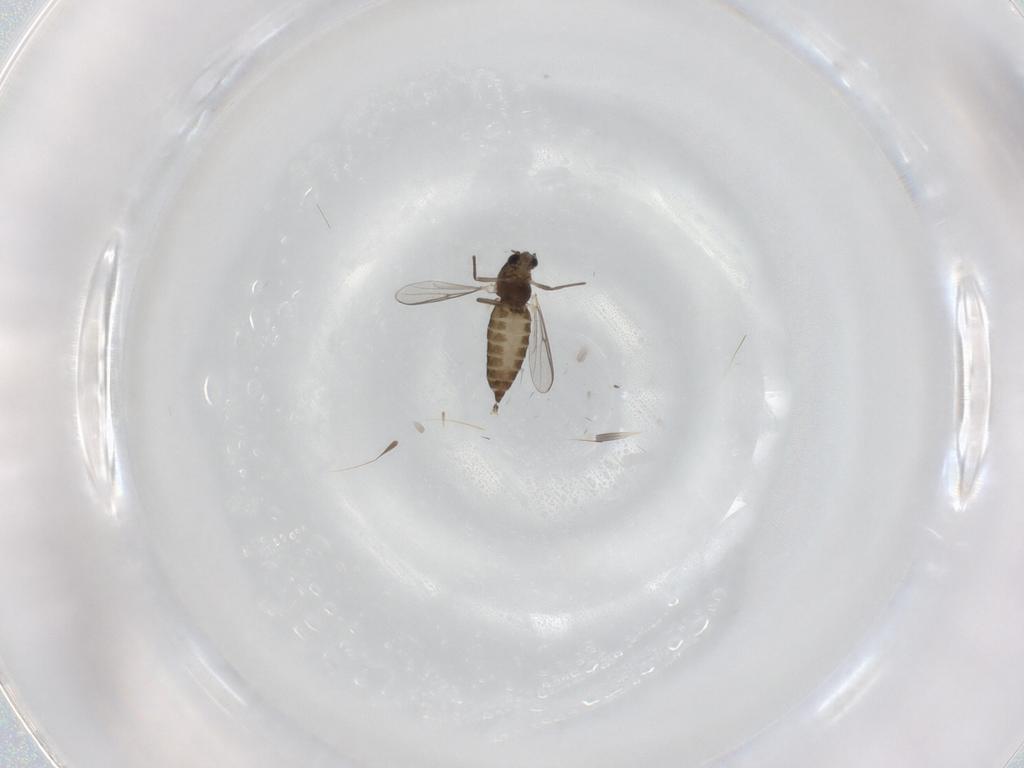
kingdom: Animalia
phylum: Arthropoda
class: Insecta
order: Diptera
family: Chironomidae
